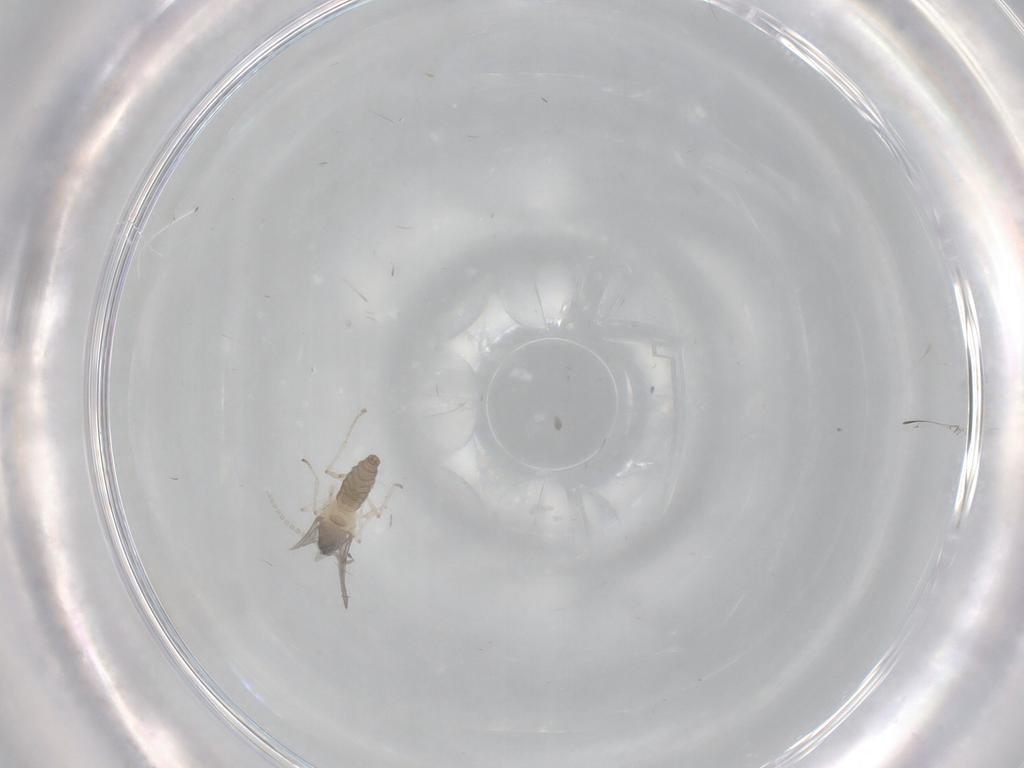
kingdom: Animalia
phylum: Arthropoda
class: Insecta
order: Diptera
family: Cecidomyiidae
